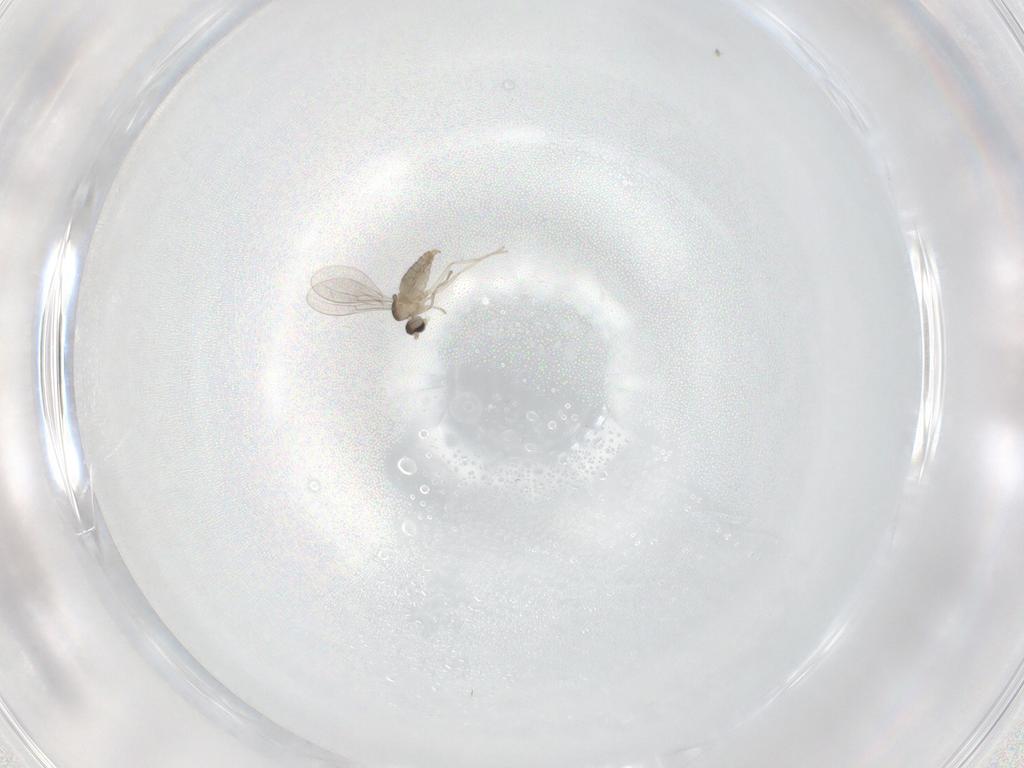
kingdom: Animalia
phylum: Arthropoda
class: Insecta
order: Diptera
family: Cecidomyiidae
